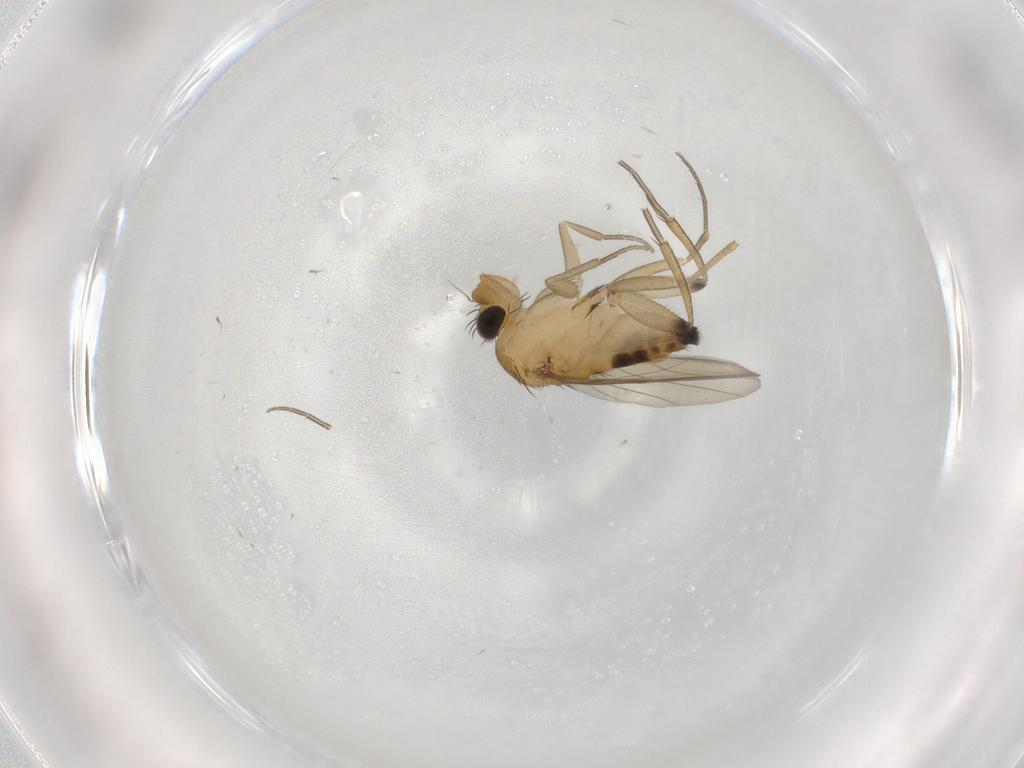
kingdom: Animalia
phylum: Arthropoda
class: Insecta
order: Diptera
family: Phoridae
